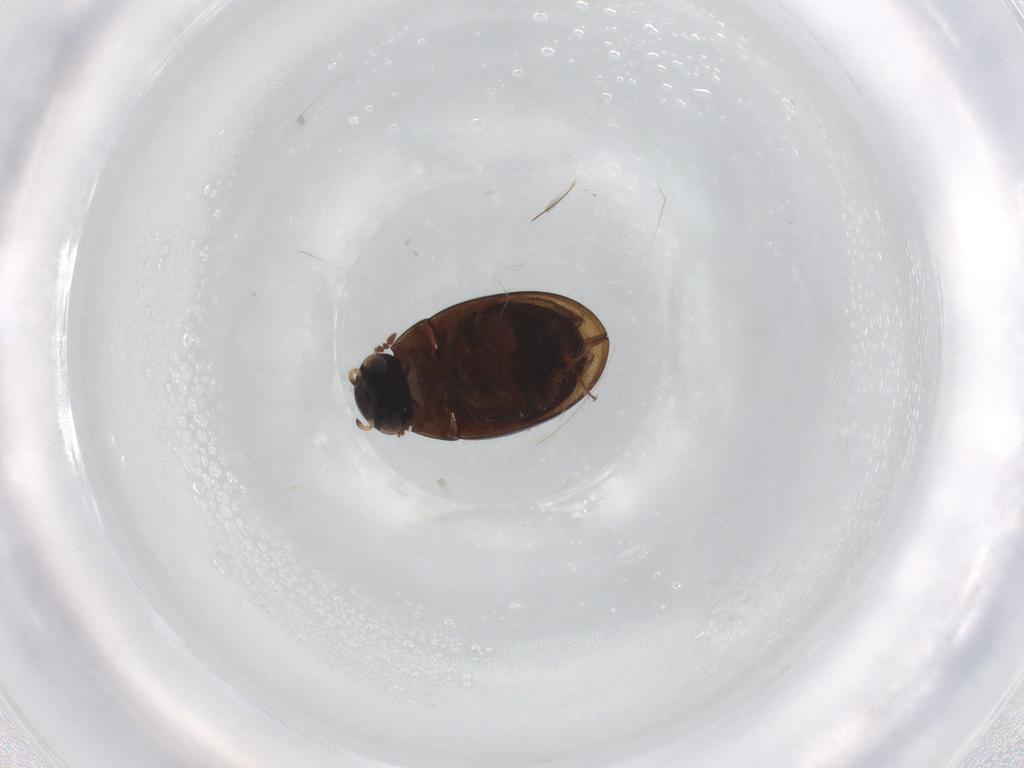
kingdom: Animalia
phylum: Arthropoda
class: Insecta
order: Coleoptera
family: Hydrophilidae
